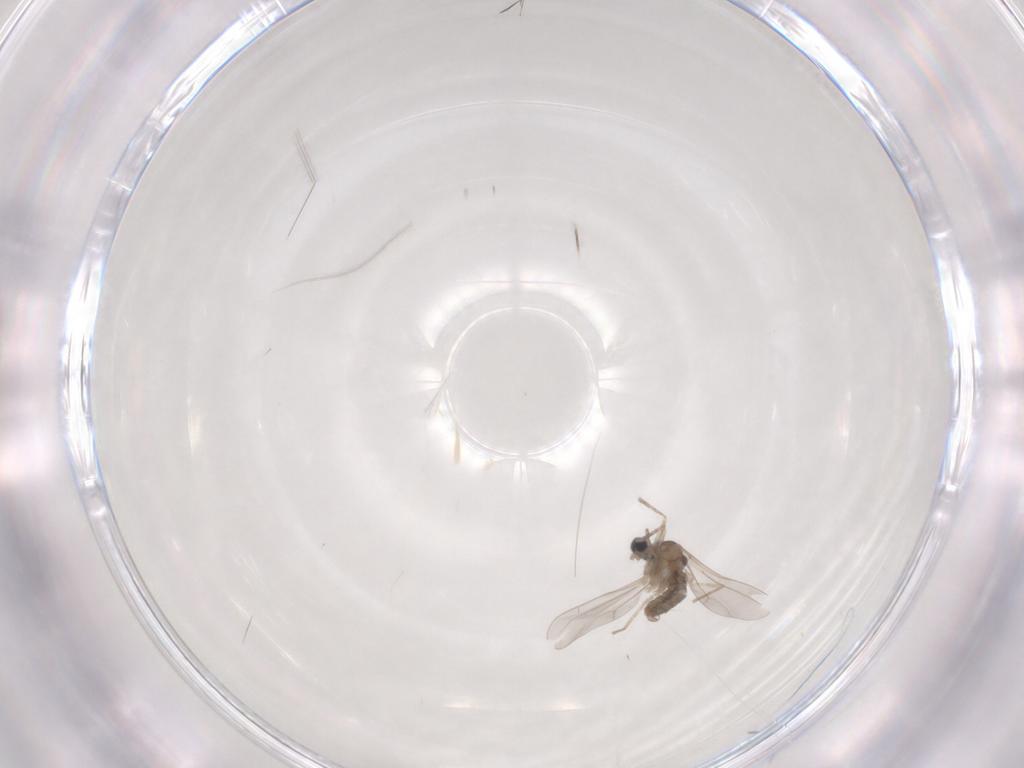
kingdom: Animalia
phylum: Arthropoda
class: Insecta
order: Diptera
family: Cecidomyiidae
